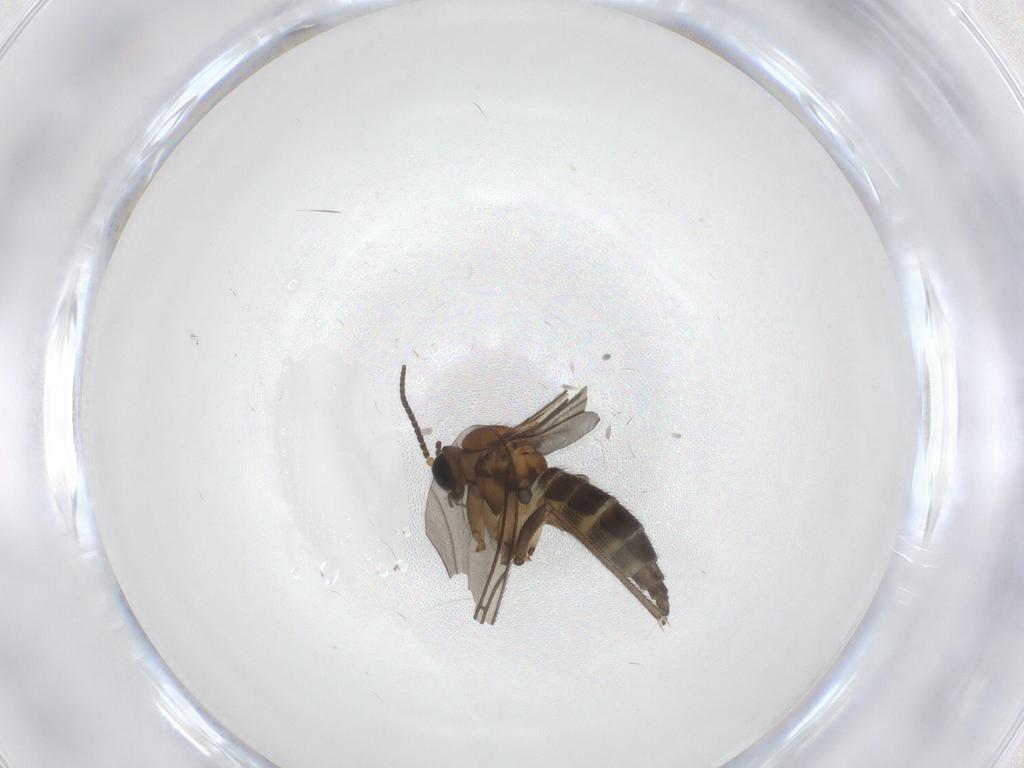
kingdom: Animalia
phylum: Arthropoda
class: Insecta
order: Diptera
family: Sciaridae
